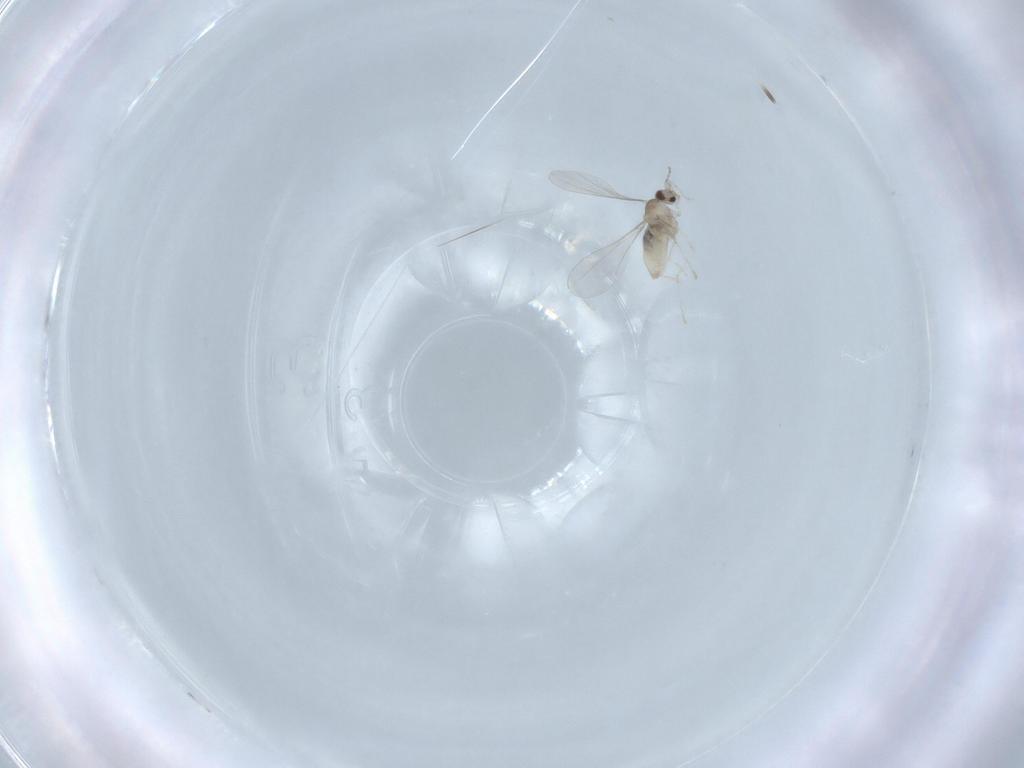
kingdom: Animalia
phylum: Arthropoda
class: Insecta
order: Diptera
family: Cecidomyiidae
